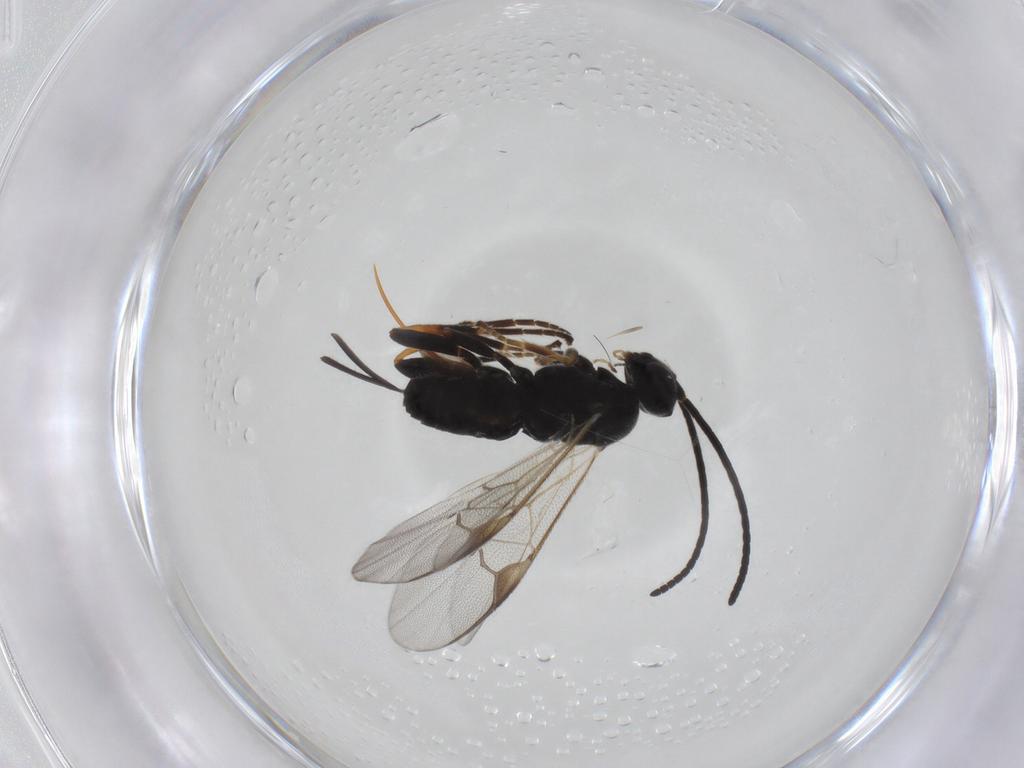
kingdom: Animalia
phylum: Arthropoda
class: Insecta
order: Hymenoptera
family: Braconidae
